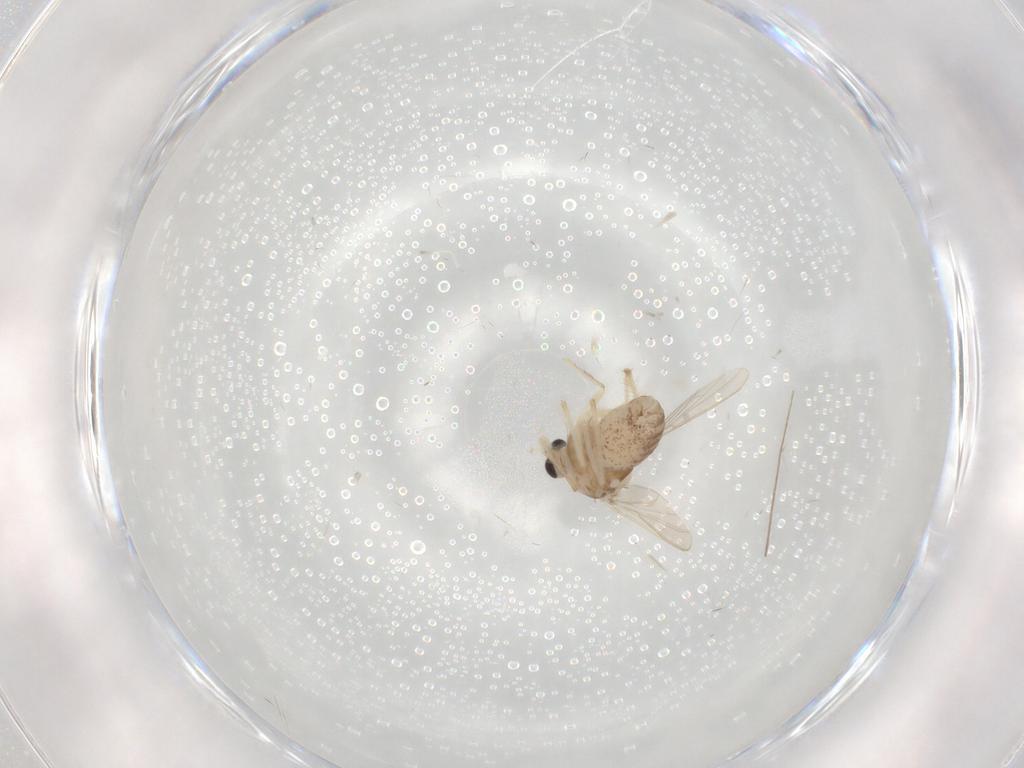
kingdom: Animalia
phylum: Arthropoda
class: Insecta
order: Diptera
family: Chironomidae
